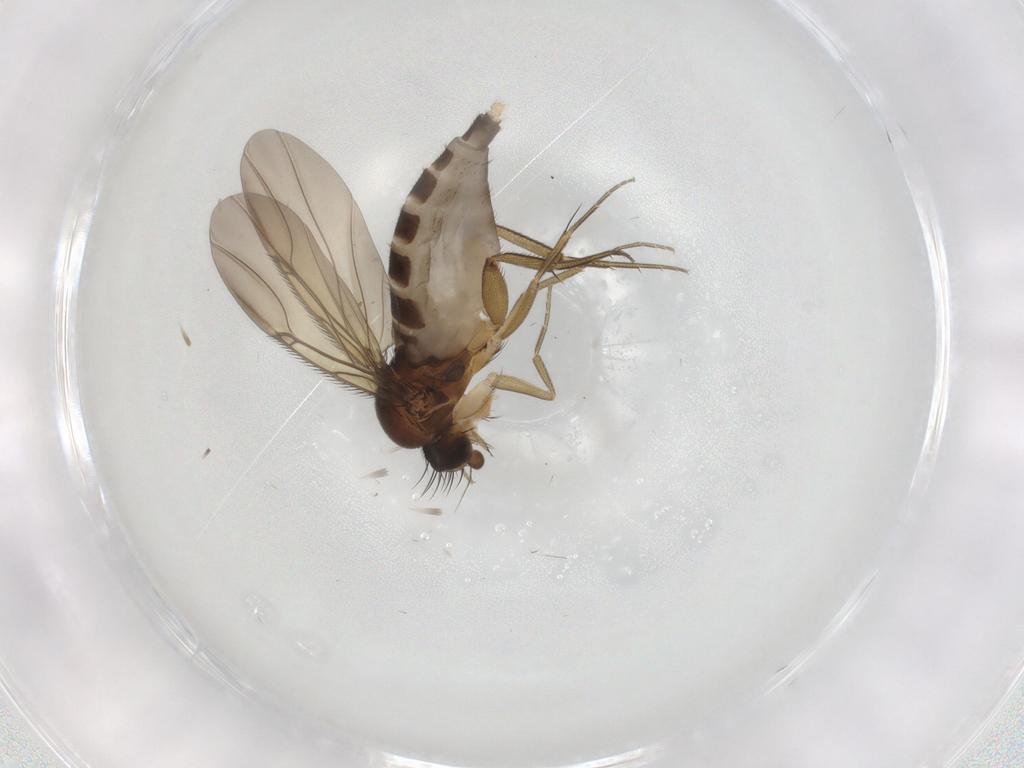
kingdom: Animalia
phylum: Arthropoda
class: Insecta
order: Diptera
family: Phoridae
